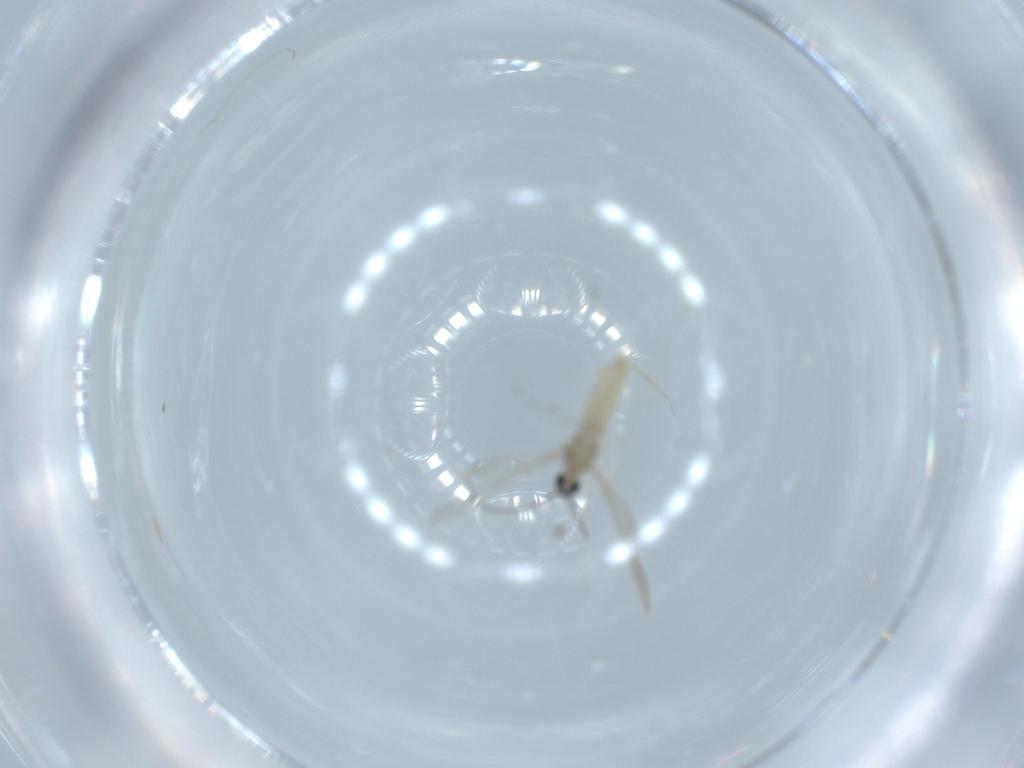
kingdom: Animalia
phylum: Arthropoda
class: Insecta
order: Diptera
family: Cecidomyiidae
